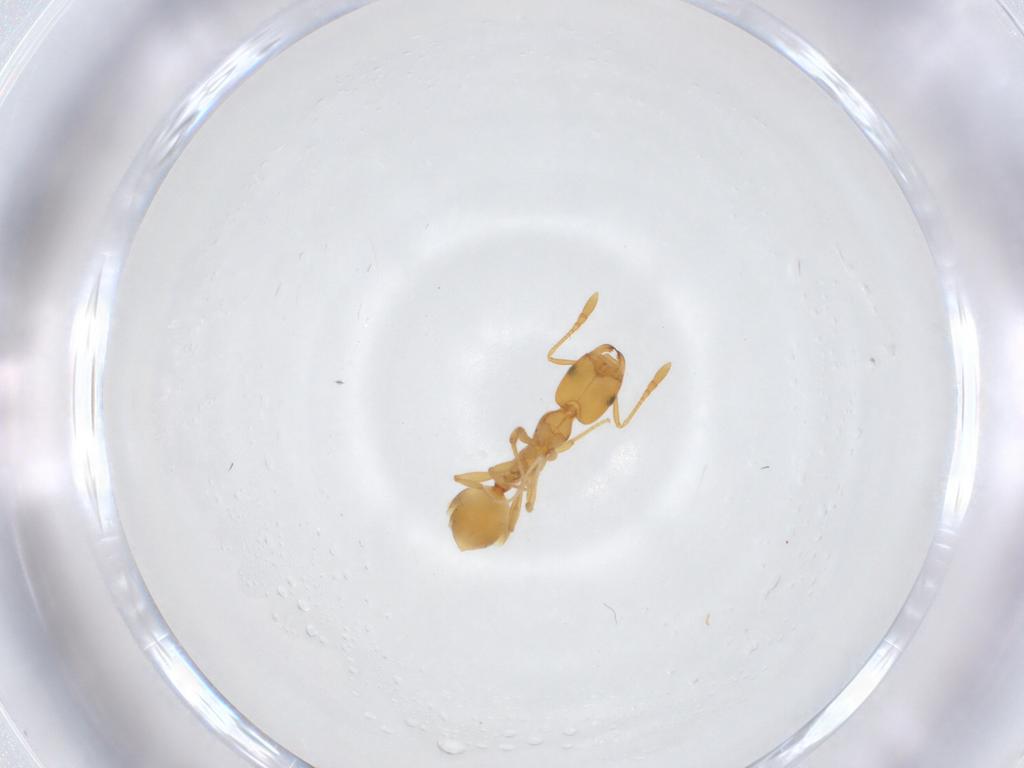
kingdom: Animalia
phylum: Arthropoda
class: Insecta
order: Hymenoptera
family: Formicidae
